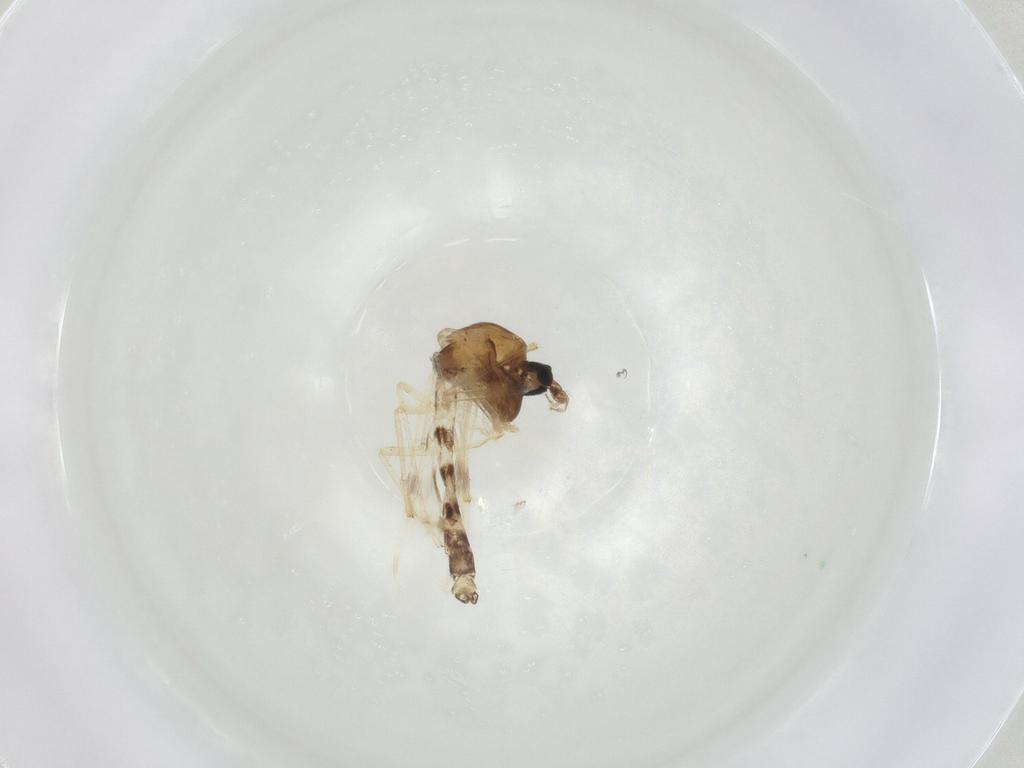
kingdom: Animalia
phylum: Arthropoda
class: Insecta
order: Diptera
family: Chironomidae
